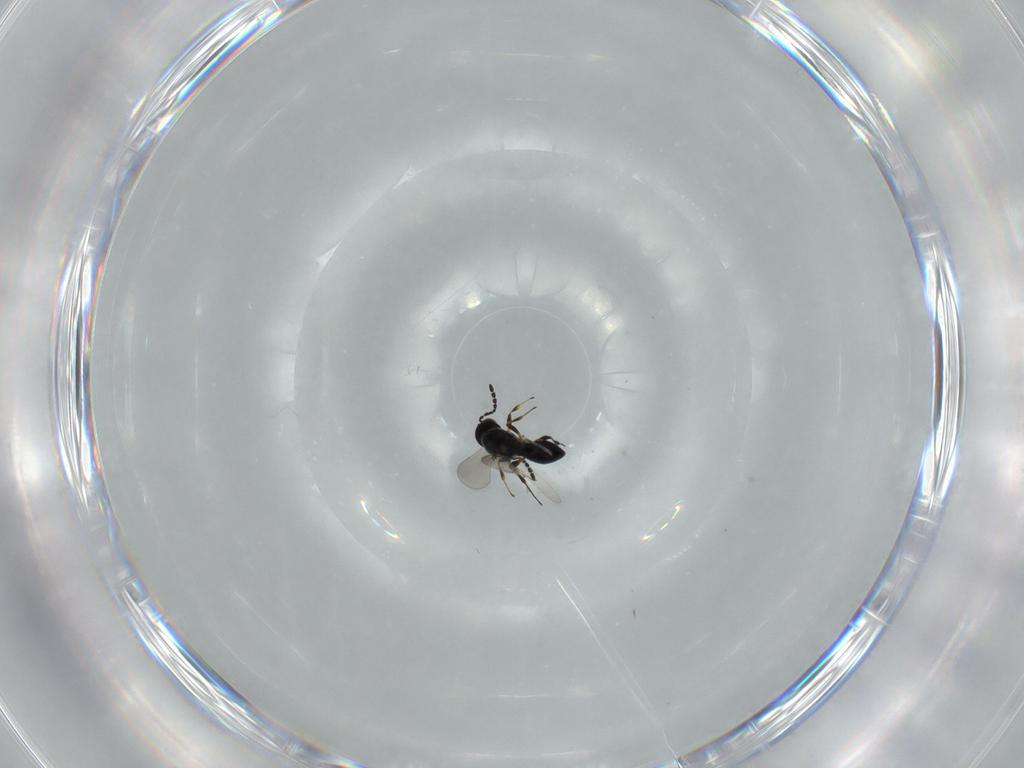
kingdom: Animalia
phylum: Arthropoda
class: Insecta
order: Hymenoptera
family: Platygastridae
